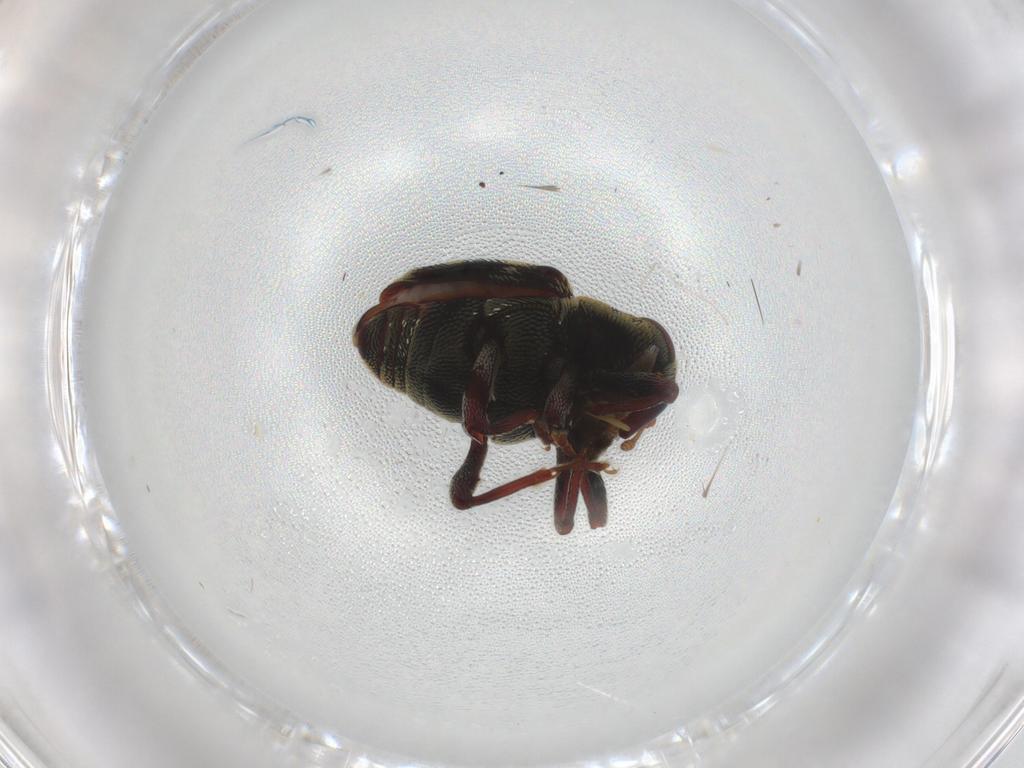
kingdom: Animalia
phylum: Arthropoda
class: Insecta
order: Coleoptera
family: Curculionidae
